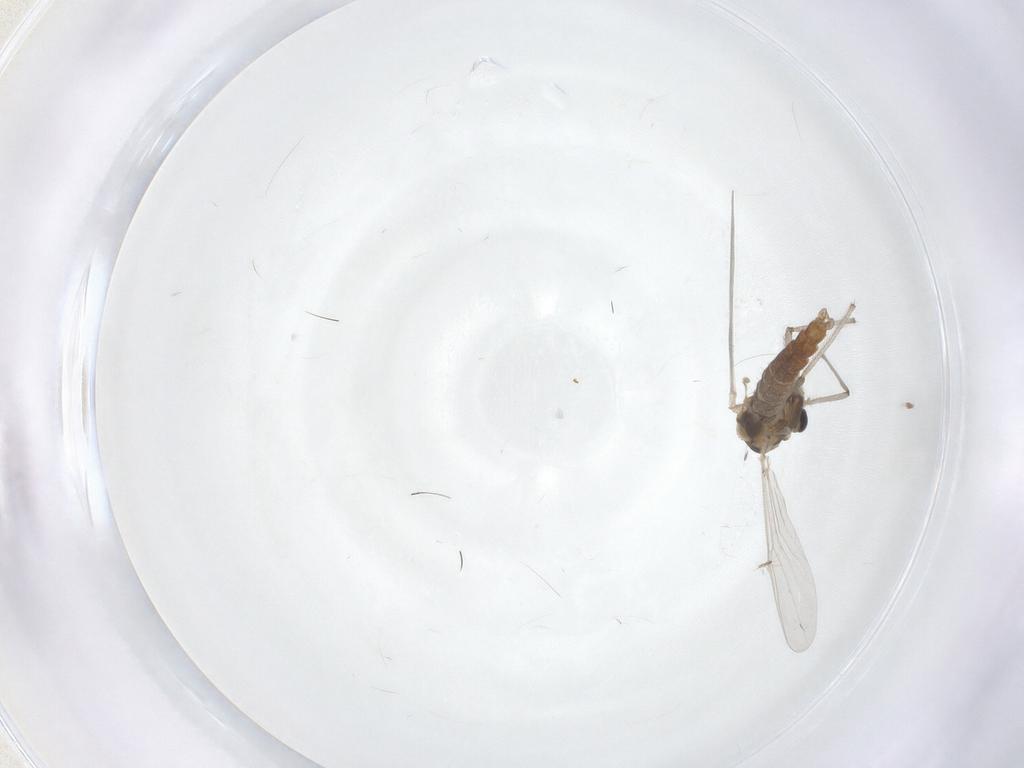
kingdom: Animalia
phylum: Arthropoda
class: Insecta
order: Diptera
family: Chironomidae
